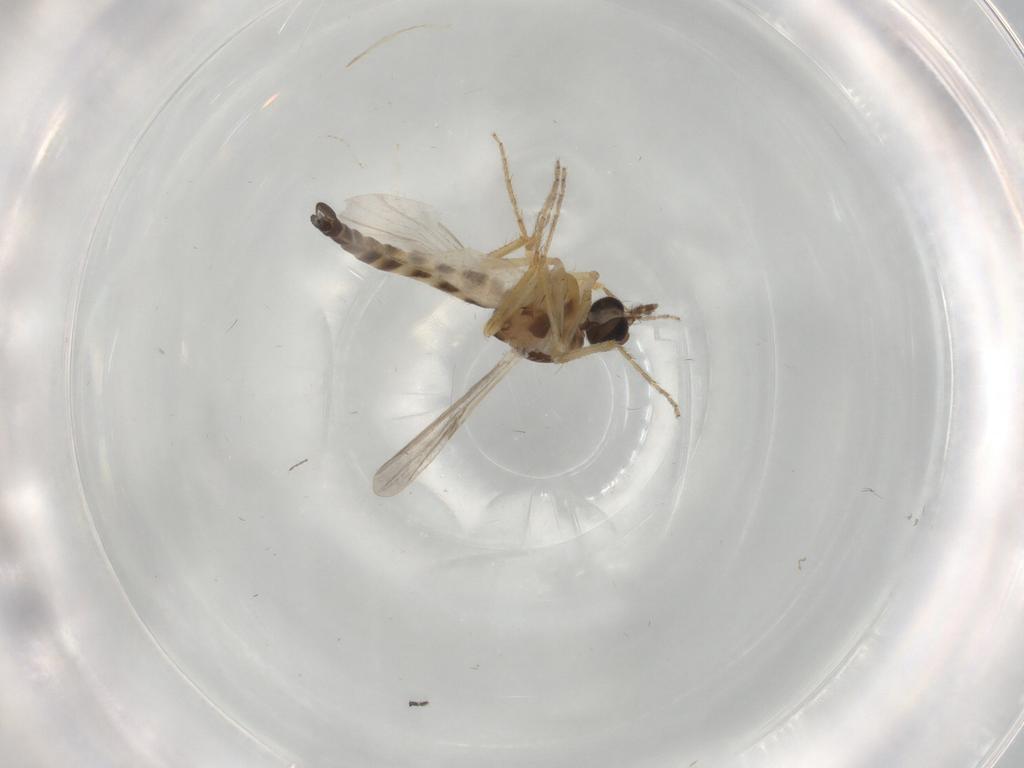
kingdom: Animalia
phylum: Arthropoda
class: Insecta
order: Diptera
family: Ceratopogonidae
